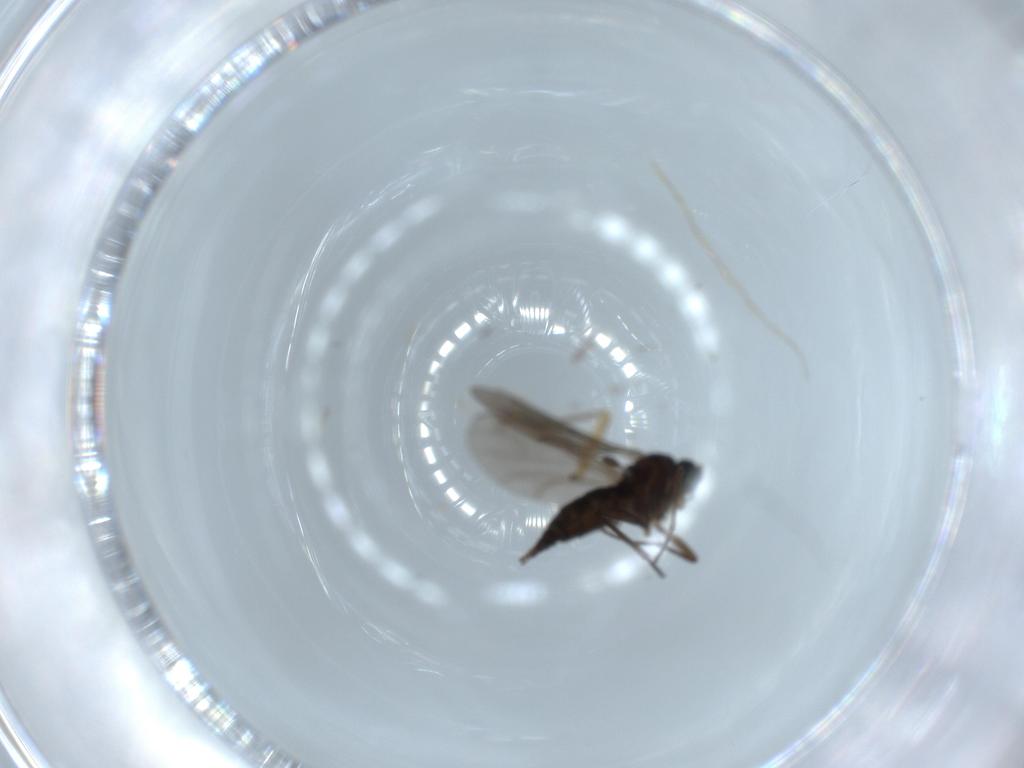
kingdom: Animalia
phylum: Arthropoda
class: Insecta
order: Diptera
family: Sciaridae
